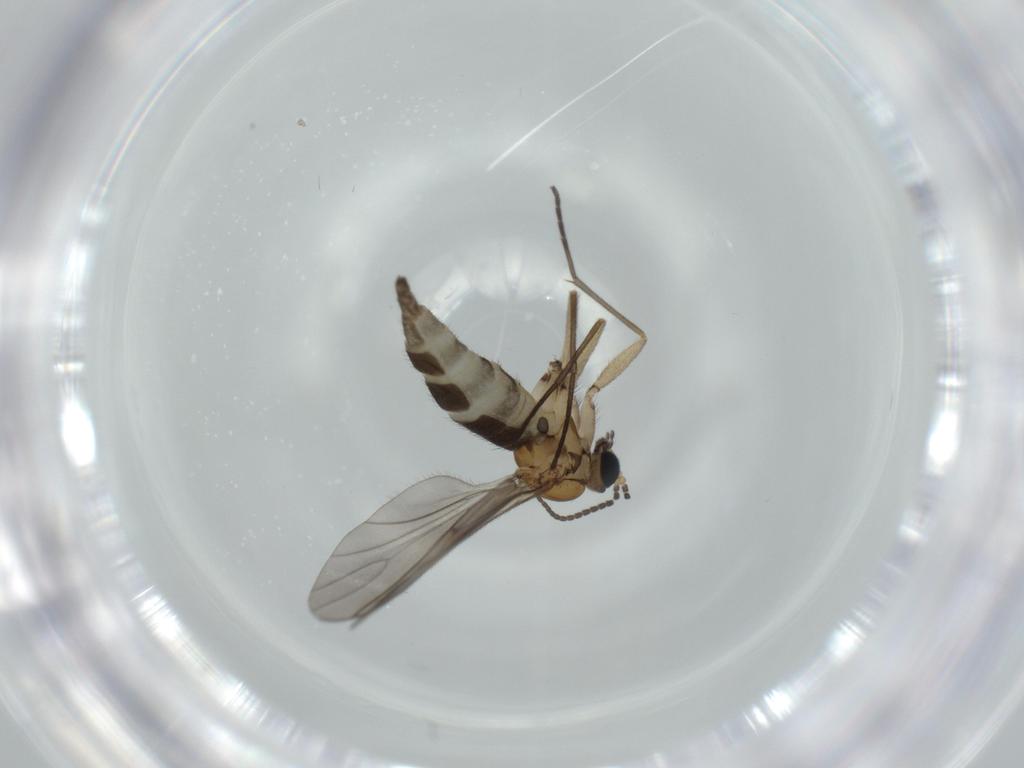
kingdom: Animalia
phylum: Arthropoda
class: Insecta
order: Diptera
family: Sciaridae
